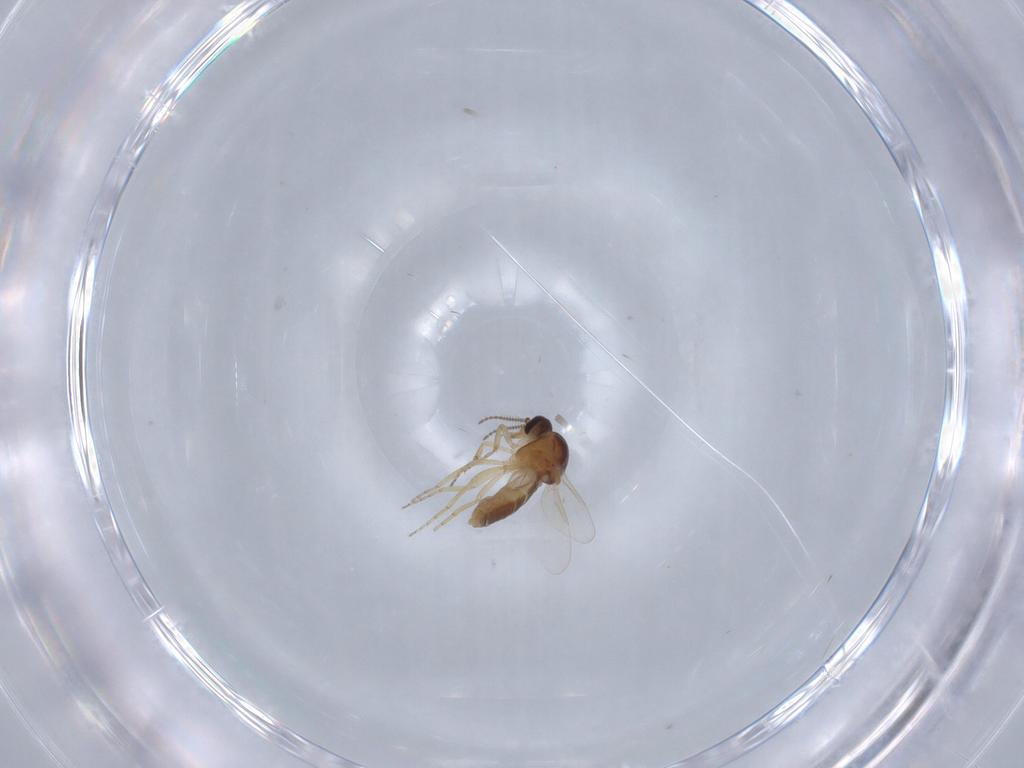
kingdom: Animalia
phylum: Arthropoda
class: Insecta
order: Diptera
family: Ceratopogonidae
